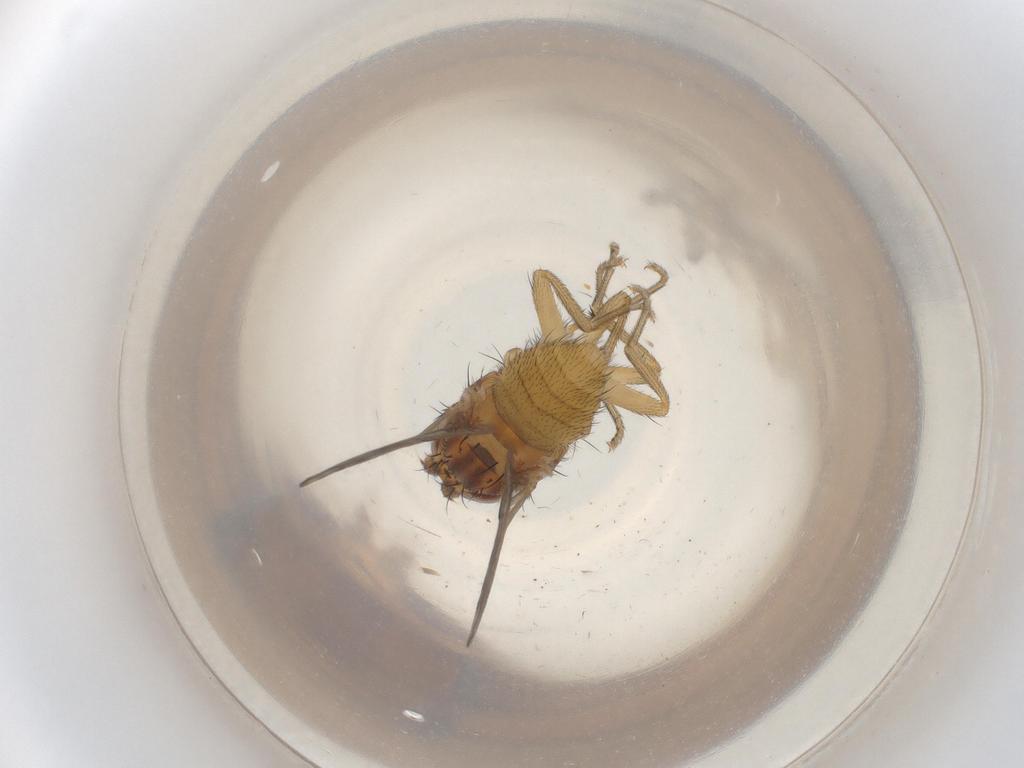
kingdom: Animalia
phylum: Arthropoda
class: Insecta
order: Diptera
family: Lauxaniidae
